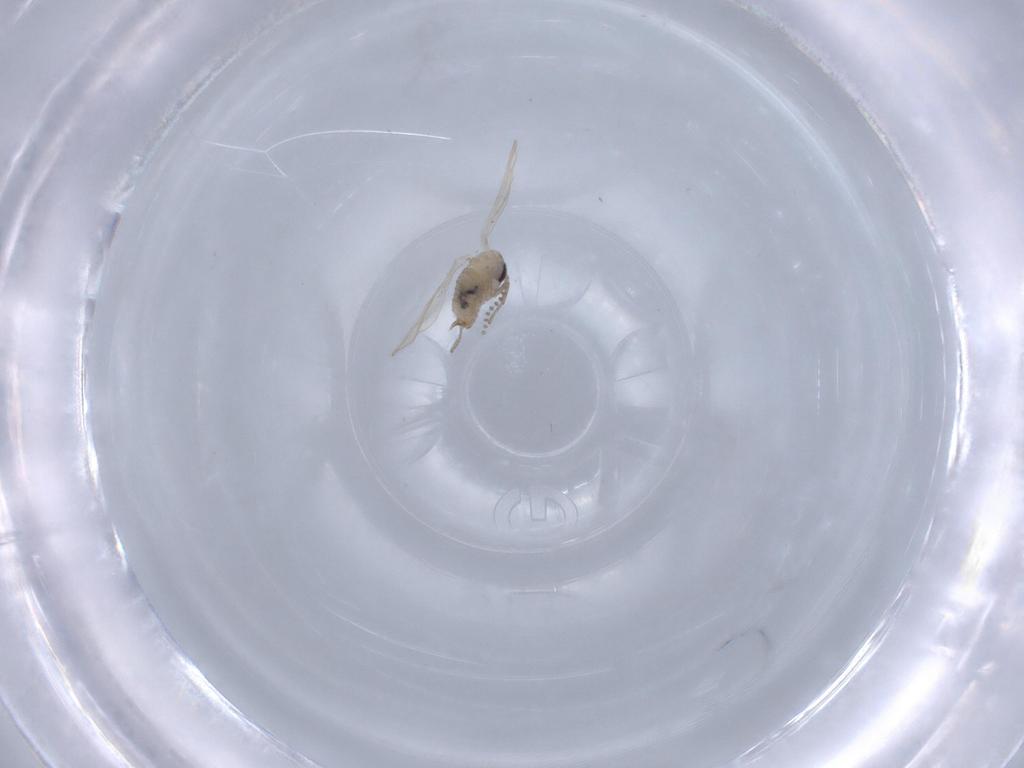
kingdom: Animalia
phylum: Arthropoda
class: Insecta
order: Diptera
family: Psychodidae
